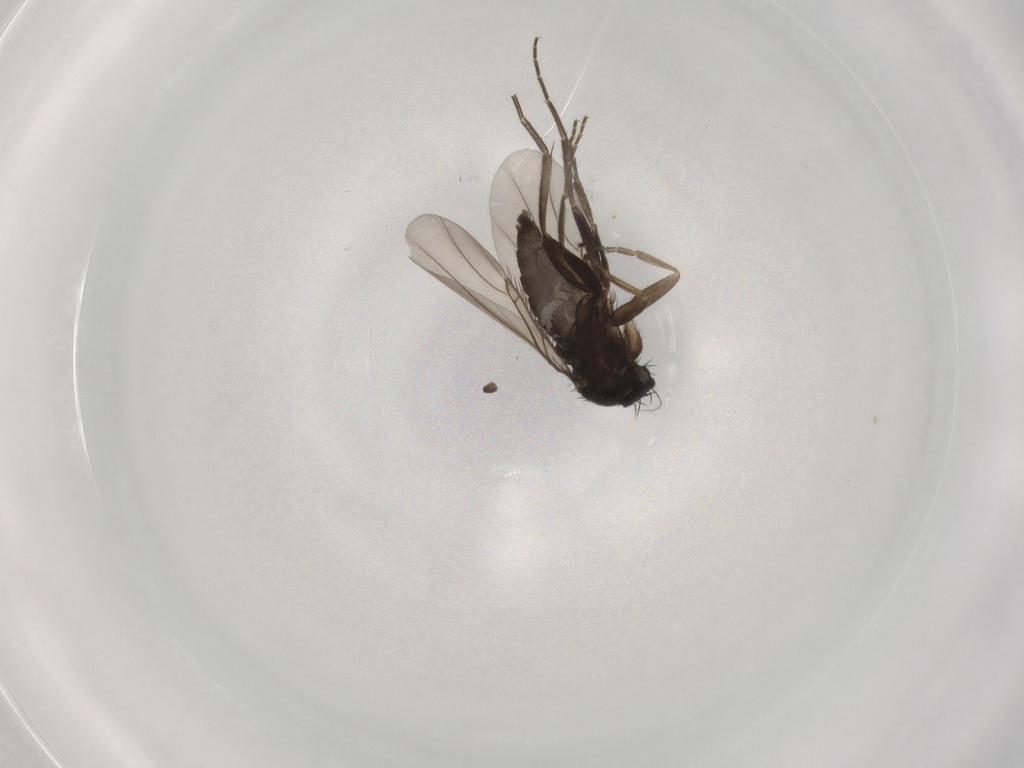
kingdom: Animalia
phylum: Arthropoda
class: Insecta
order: Diptera
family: Phoridae
